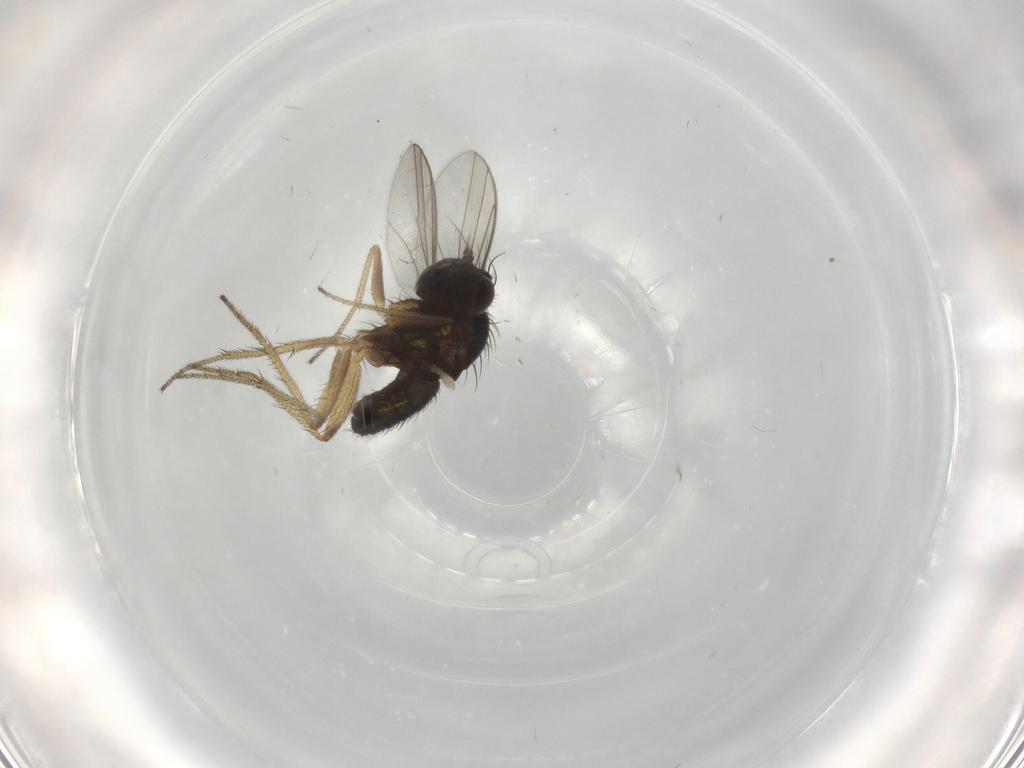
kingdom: Animalia
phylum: Arthropoda
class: Insecta
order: Diptera
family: Dolichopodidae
